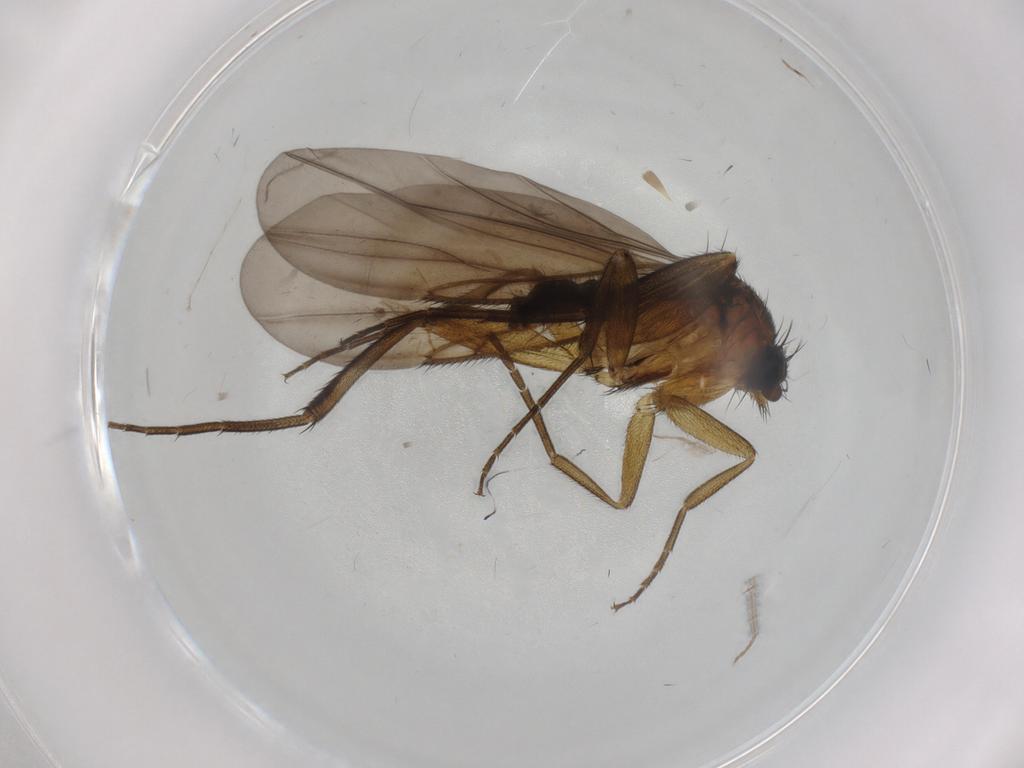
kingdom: Animalia
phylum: Arthropoda
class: Insecta
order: Diptera
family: Phoridae
